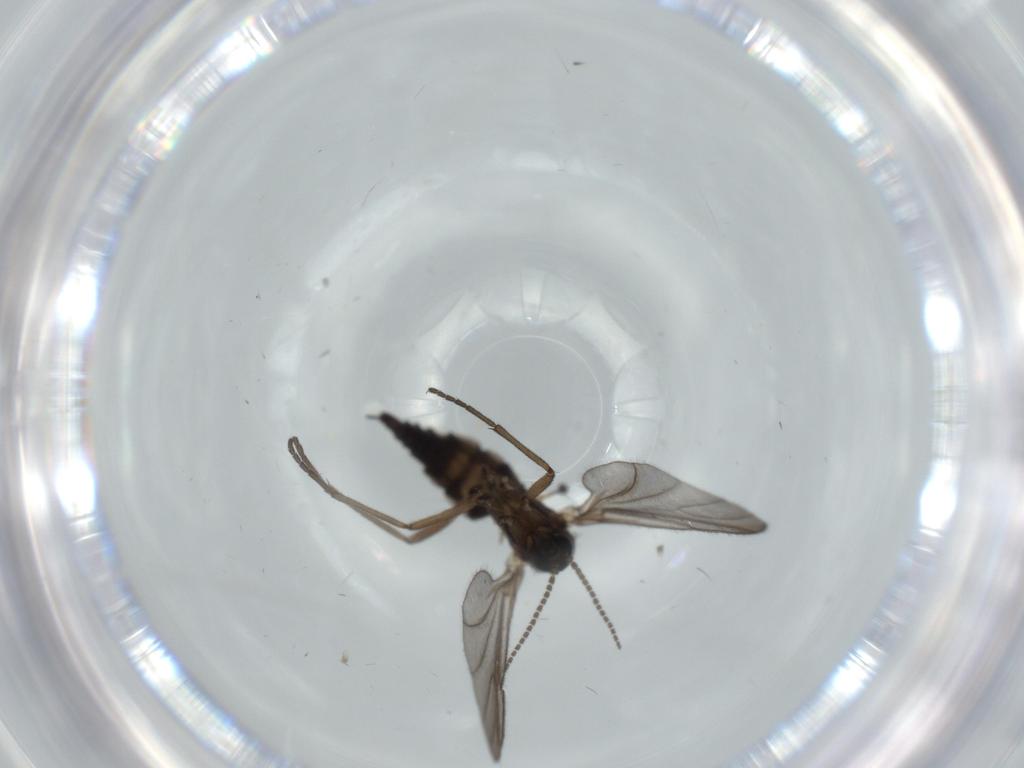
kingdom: Animalia
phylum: Arthropoda
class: Insecta
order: Diptera
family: Sciaridae
